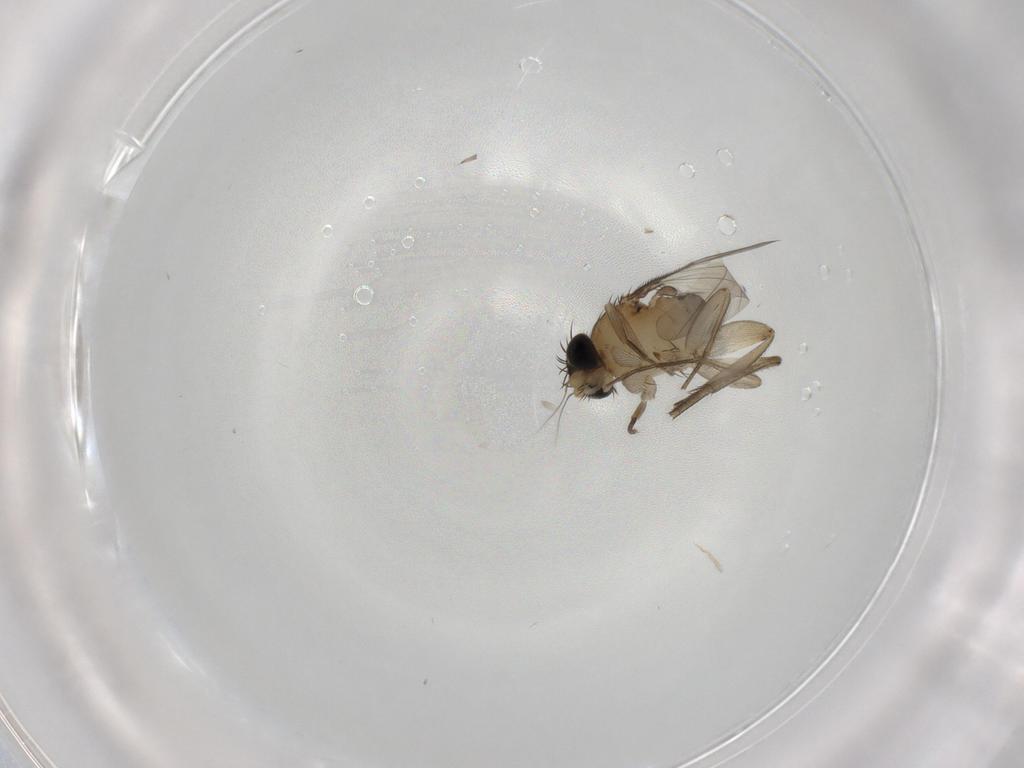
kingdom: Animalia
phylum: Arthropoda
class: Insecta
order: Diptera
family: Phoridae
